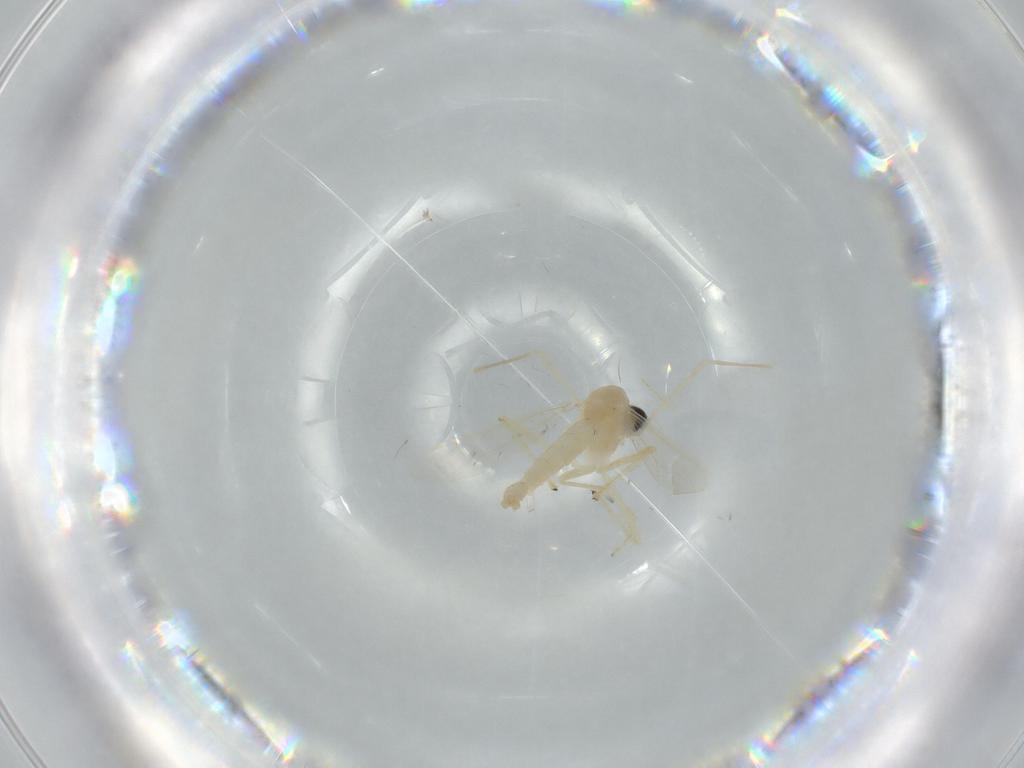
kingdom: Animalia
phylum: Arthropoda
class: Insecta
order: Diptera
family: Chironomidae
